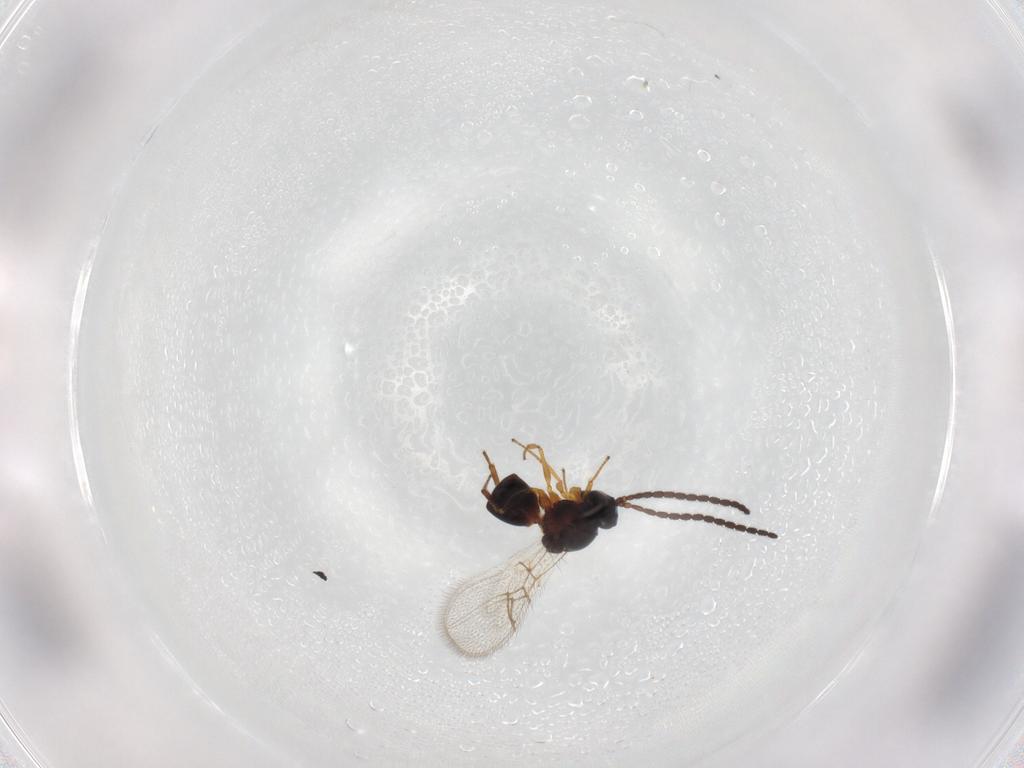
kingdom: Animalia
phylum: Arthropoda
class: Insecta
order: Hymenoptera
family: Figitidae
